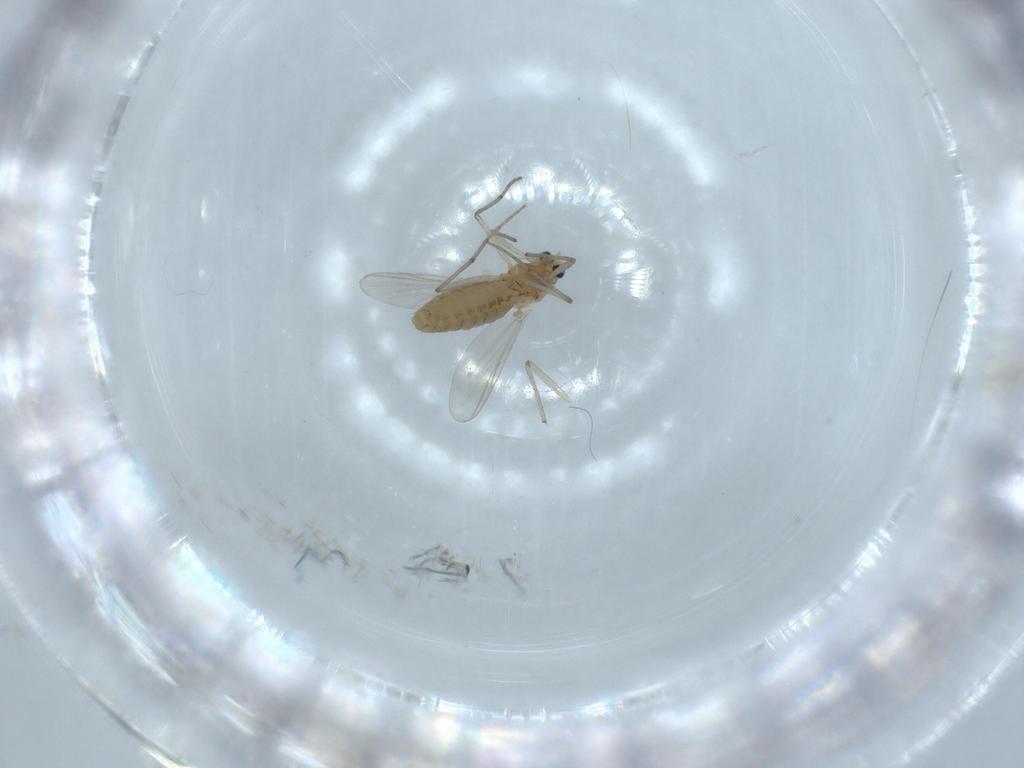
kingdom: Animalia
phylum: Arthropoda
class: Insecta
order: Diptera
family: Chironomidae
